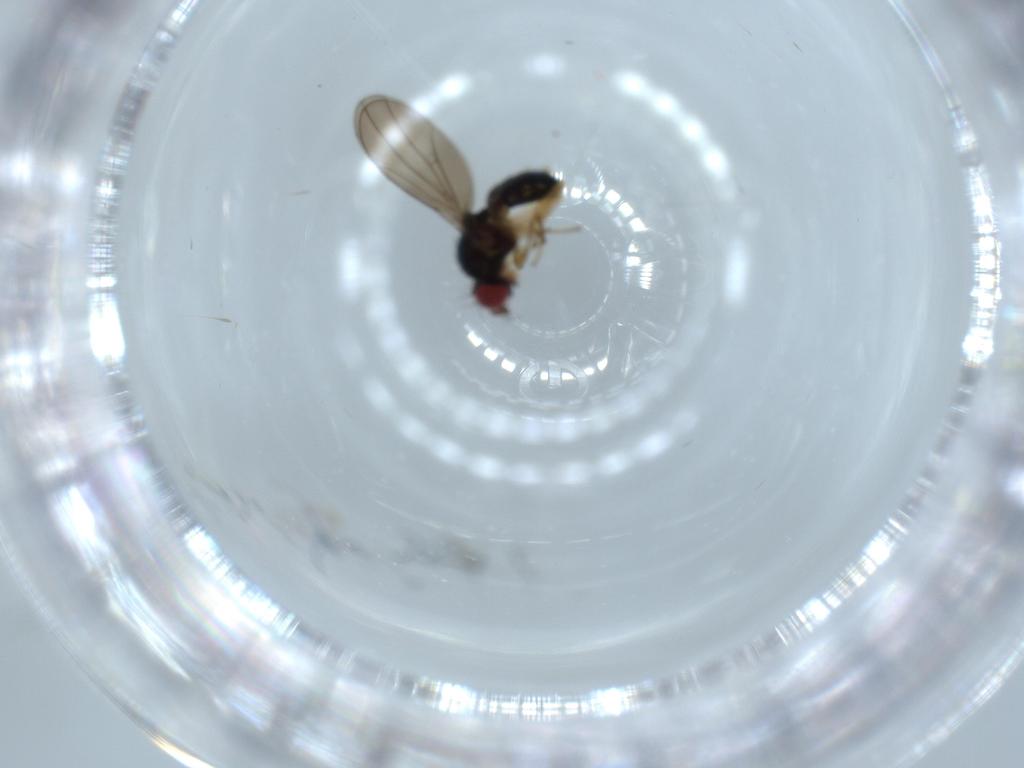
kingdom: Animalia
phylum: Arthropoda
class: Insecta
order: Diptera
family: Drosophilidae
